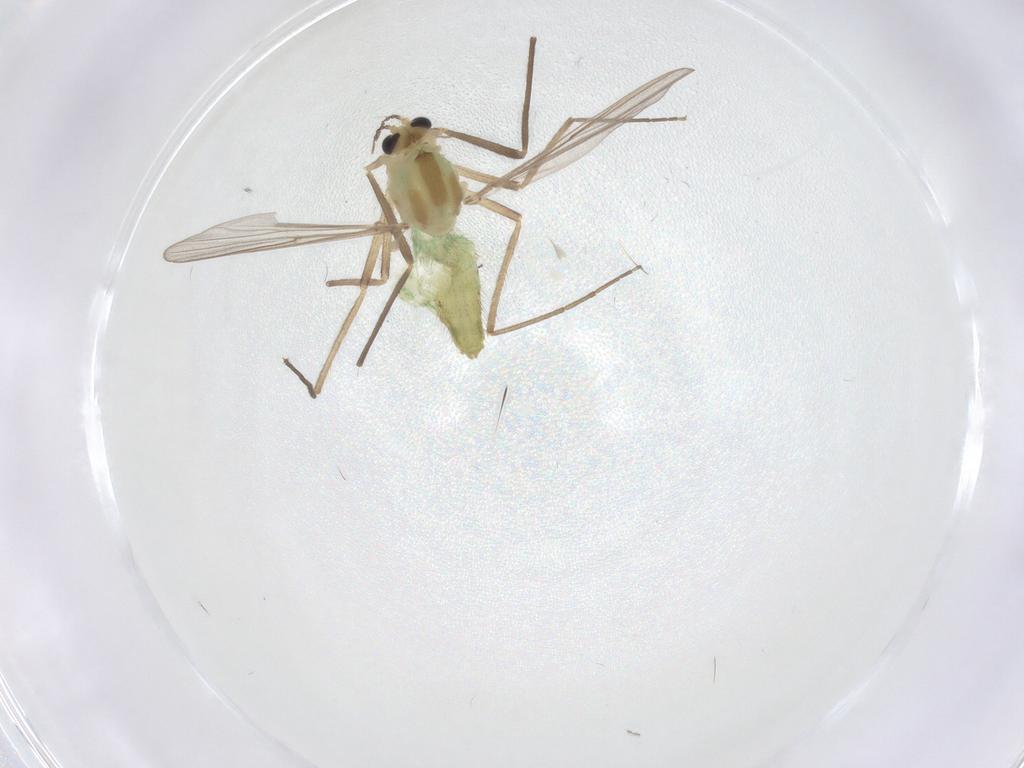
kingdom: Animalia
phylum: Arthropoda
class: Insecta
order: Diptera
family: Chironomidae
